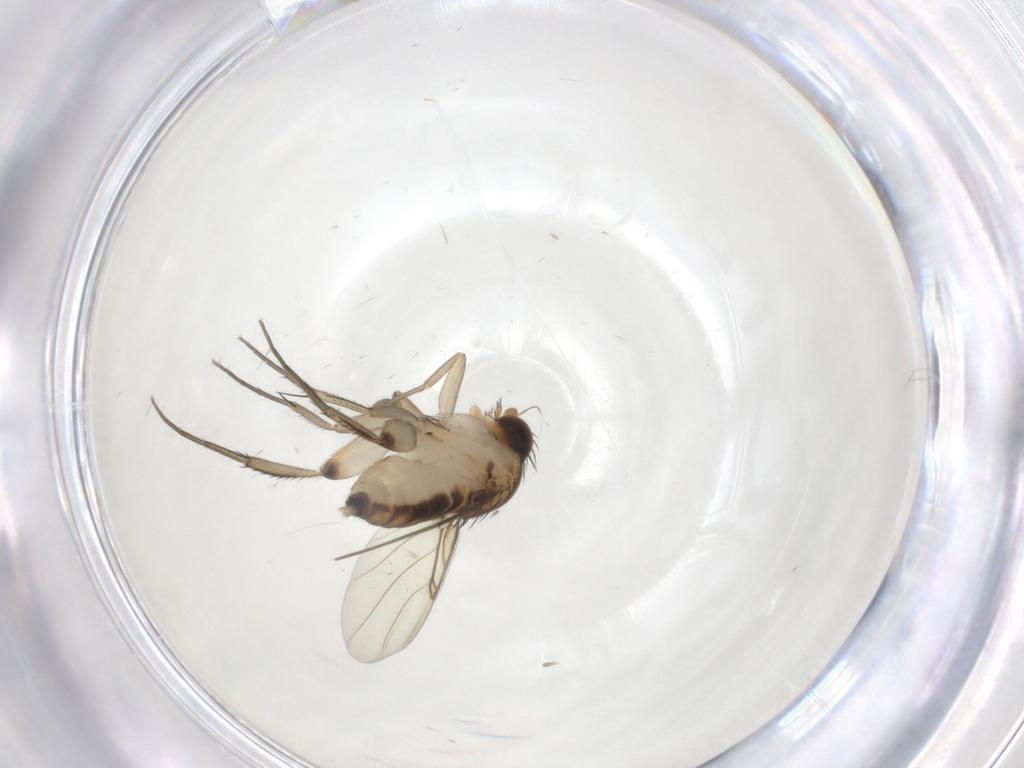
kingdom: Animalia
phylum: Arthropoda
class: Insecta
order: Diptera
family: Phoridae
